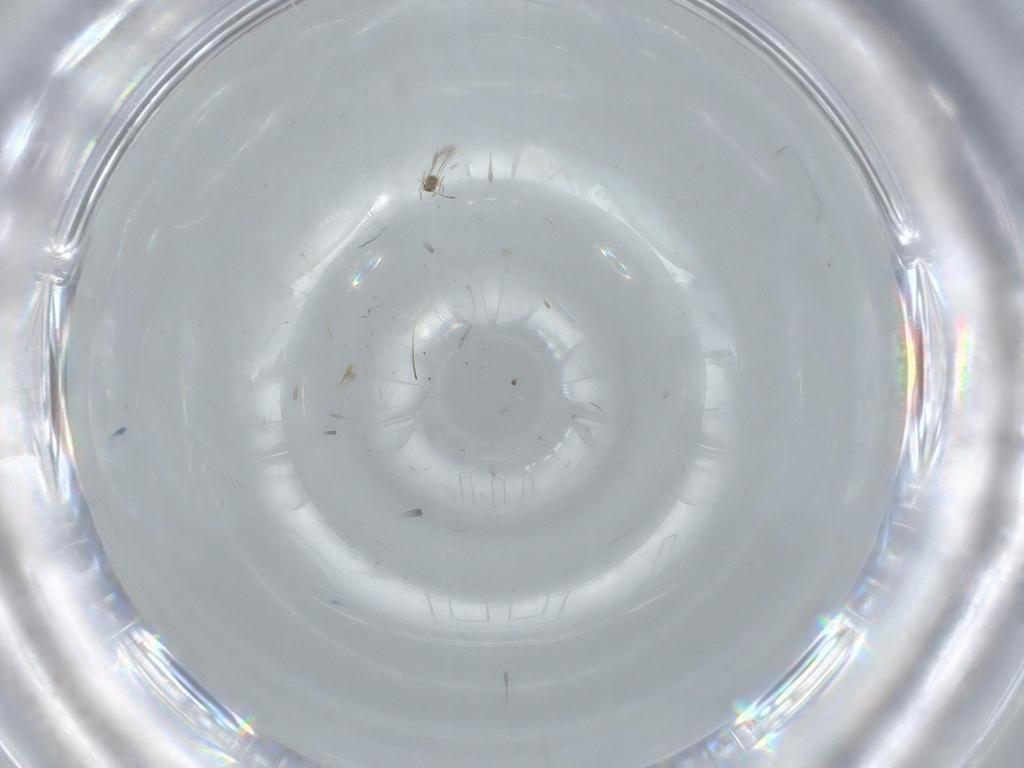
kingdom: Animalia
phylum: Arthropoda
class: Insecta
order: Diptera
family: Cecidomyiidae
